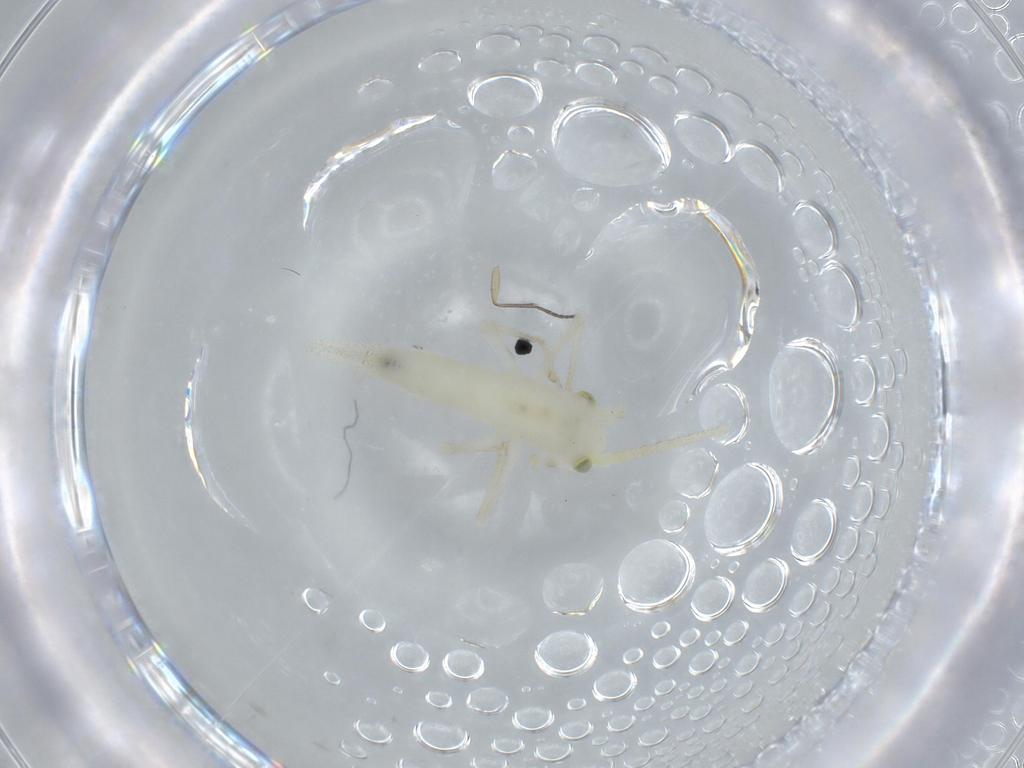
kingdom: Animalia
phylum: Arthropoda
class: Insecta
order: Orthoptera
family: Trigonidiidae
